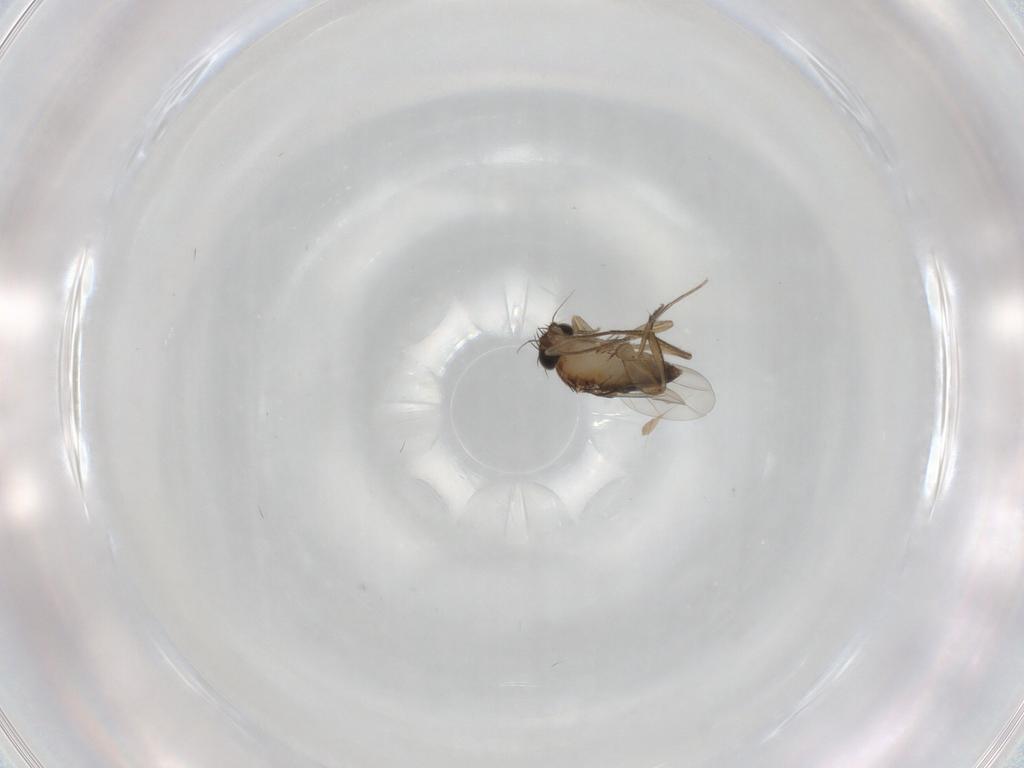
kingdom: Animalia
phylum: Arthropoda
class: Insecta
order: Diptera
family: Phoridae
